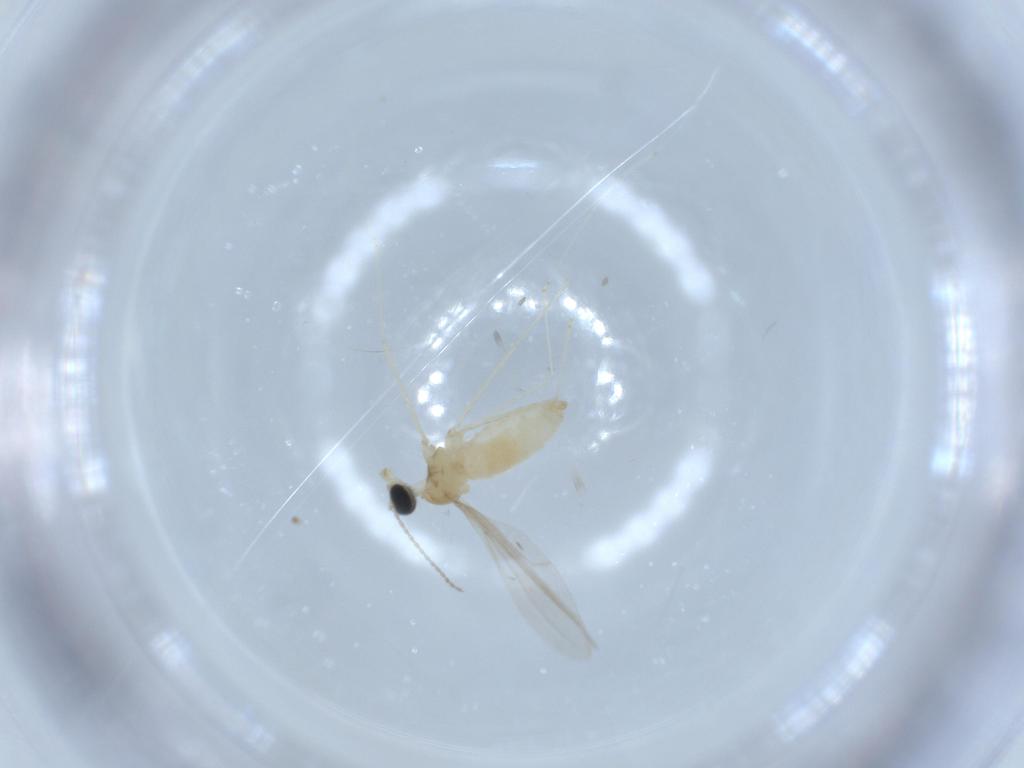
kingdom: Animalia
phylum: Arthropoda
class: Insecta
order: Diptera
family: Cecidomyiidae
